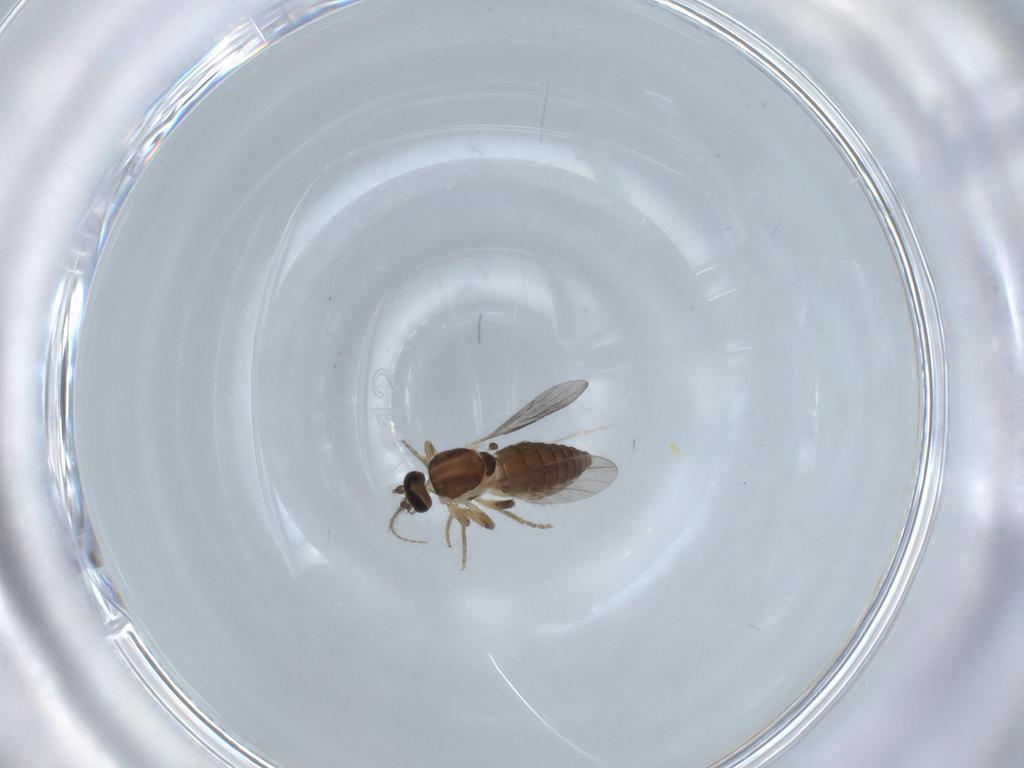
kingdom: Animalia
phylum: Arthropoda
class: Insecta
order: Diptera
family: Ceratopogonidae
